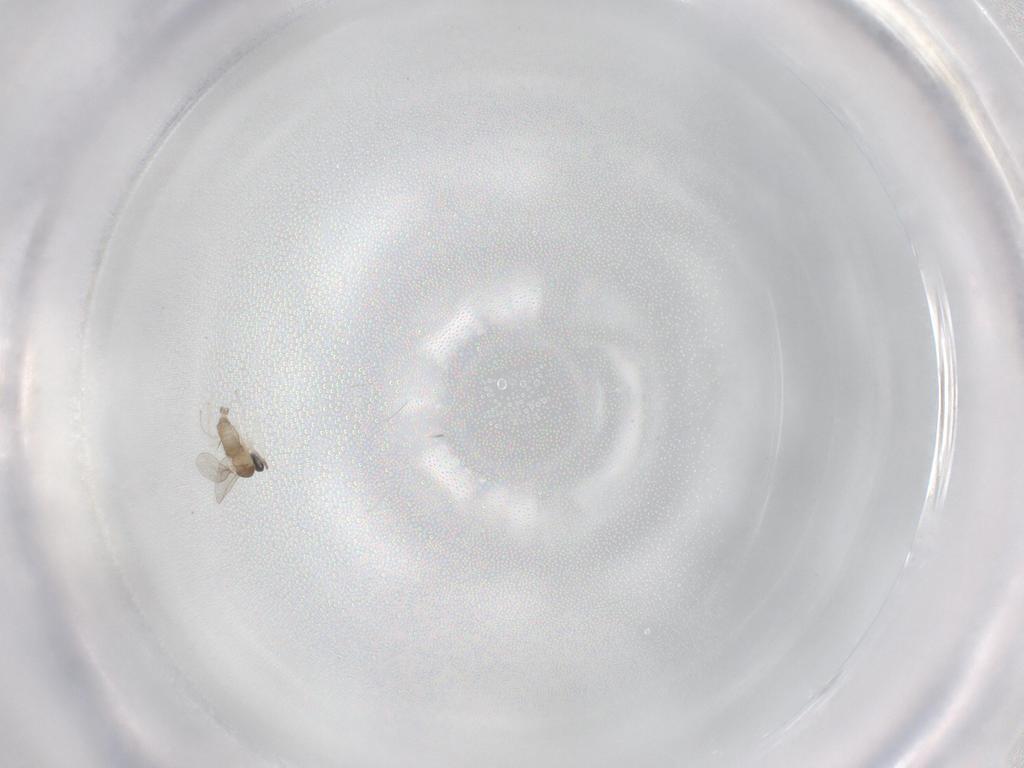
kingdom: Animalia
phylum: Arthropoda
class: Insecta
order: Diptera
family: Cecidomyiidae
